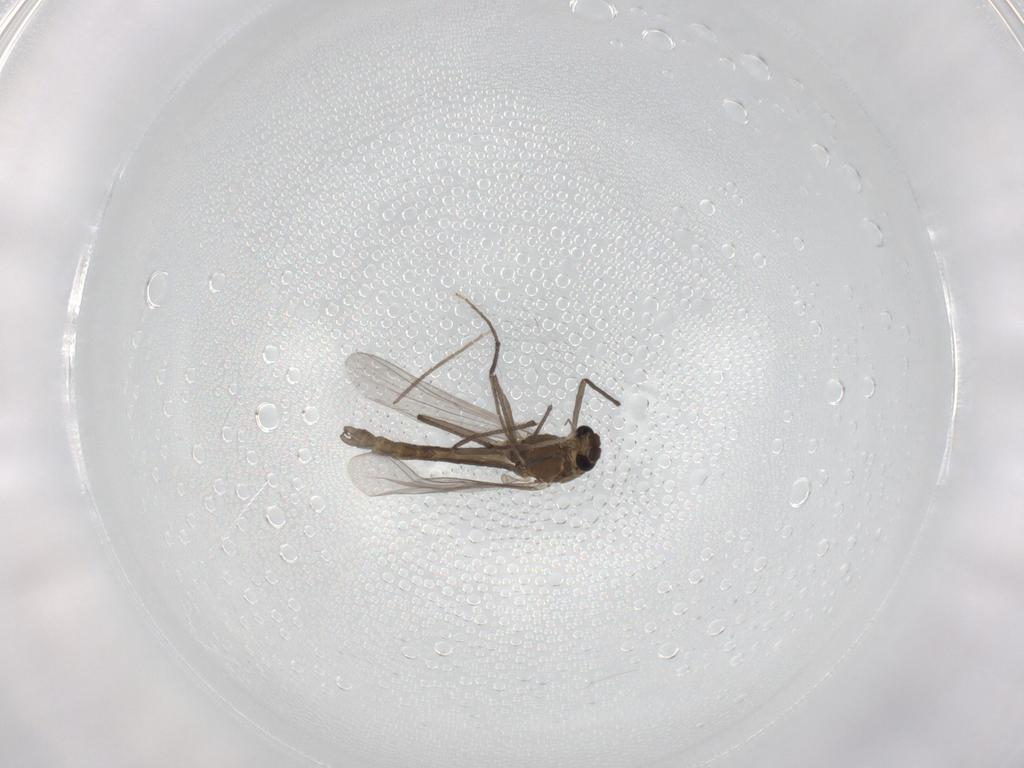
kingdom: Animalia
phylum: Arthropoda
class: Insecta
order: Diptera
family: Chironomidae
